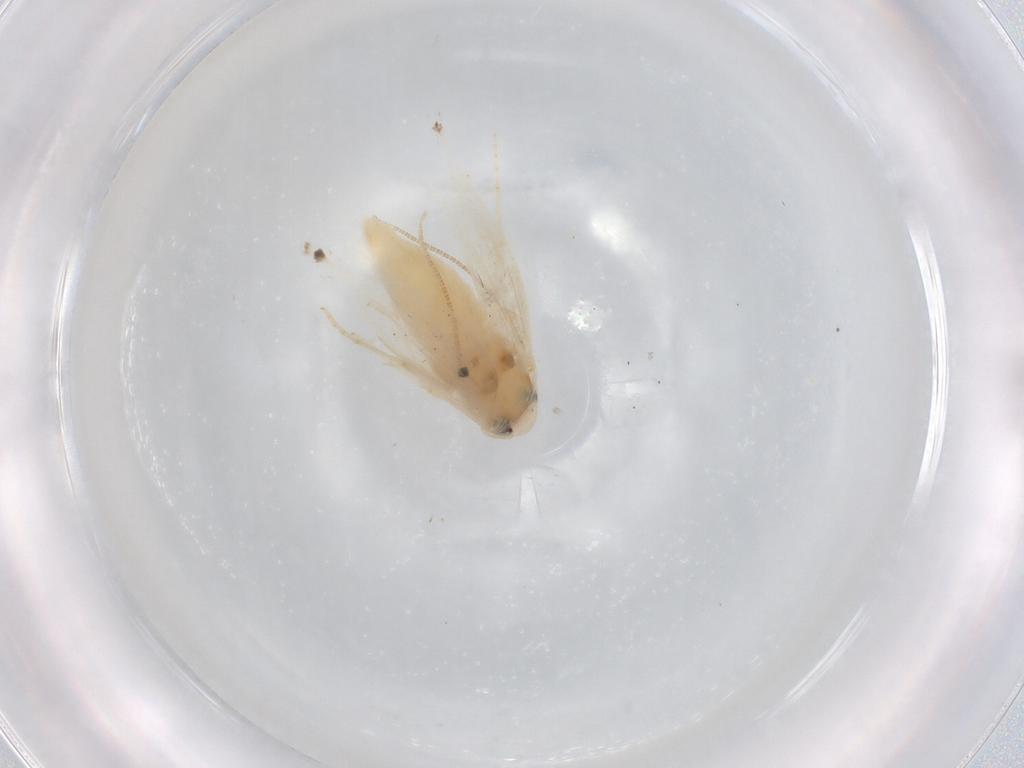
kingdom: Animalia
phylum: Arthropoda
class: Insecta
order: Lepidoptera
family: Gracillariidae
